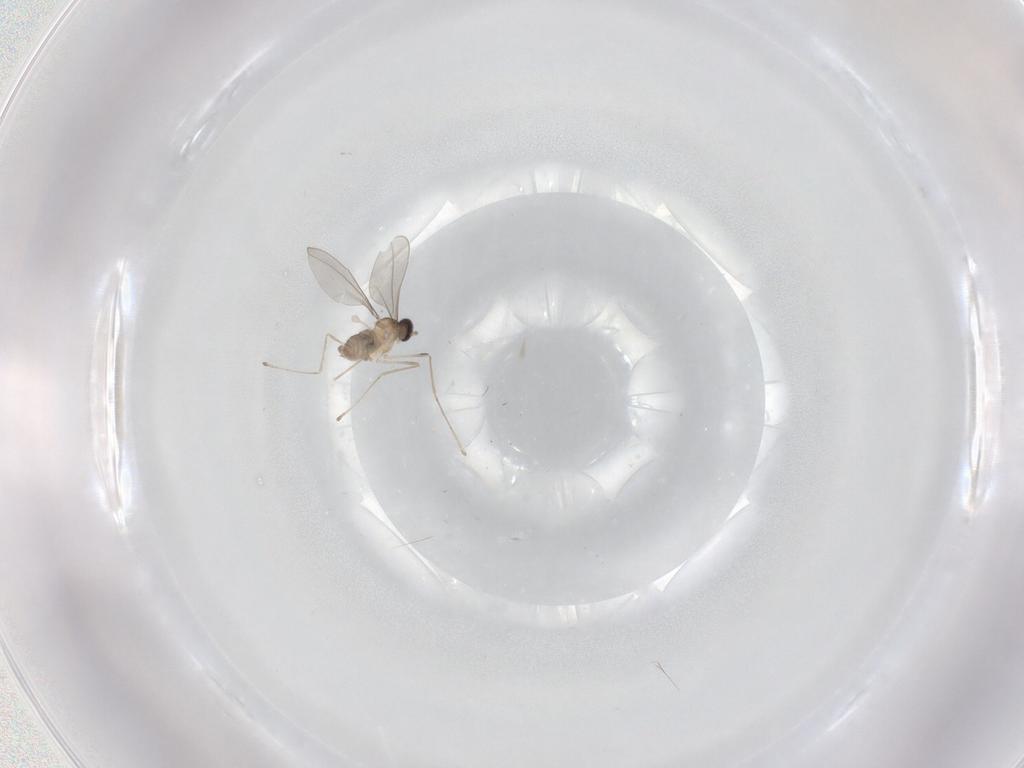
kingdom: Animalia
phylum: Arthropoda
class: Insecta
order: Diptera
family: Cecidomyiidae
